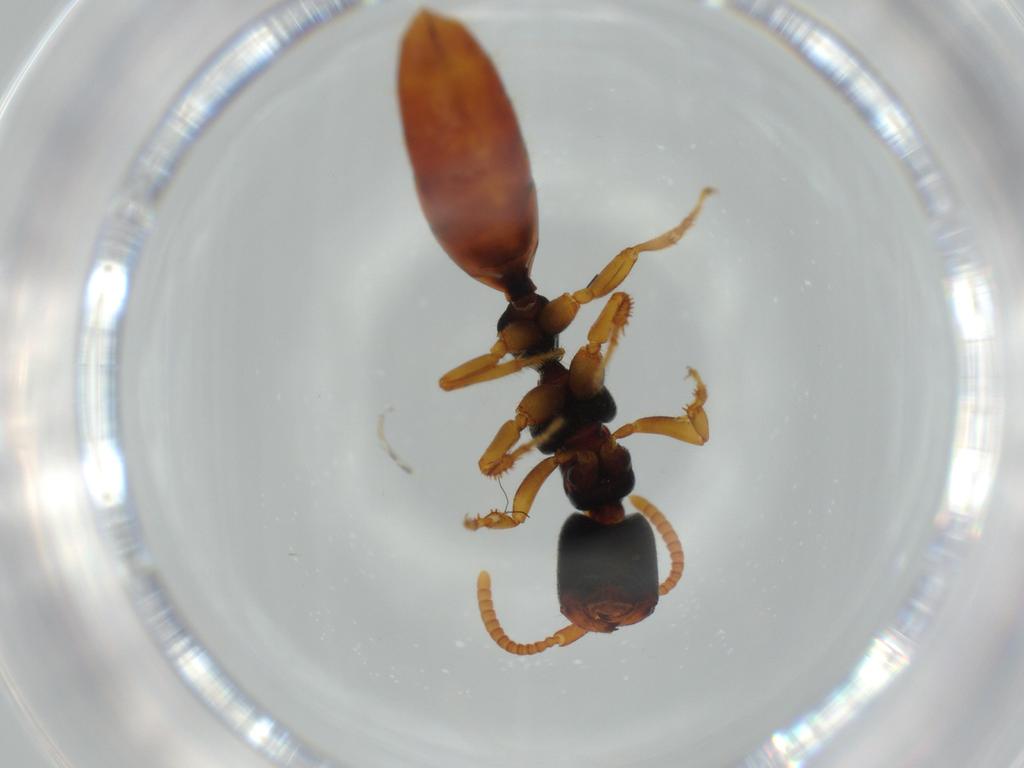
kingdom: Animalia
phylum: Arthropoda
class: Insecta
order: Hymenoptera
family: Bethylidae
